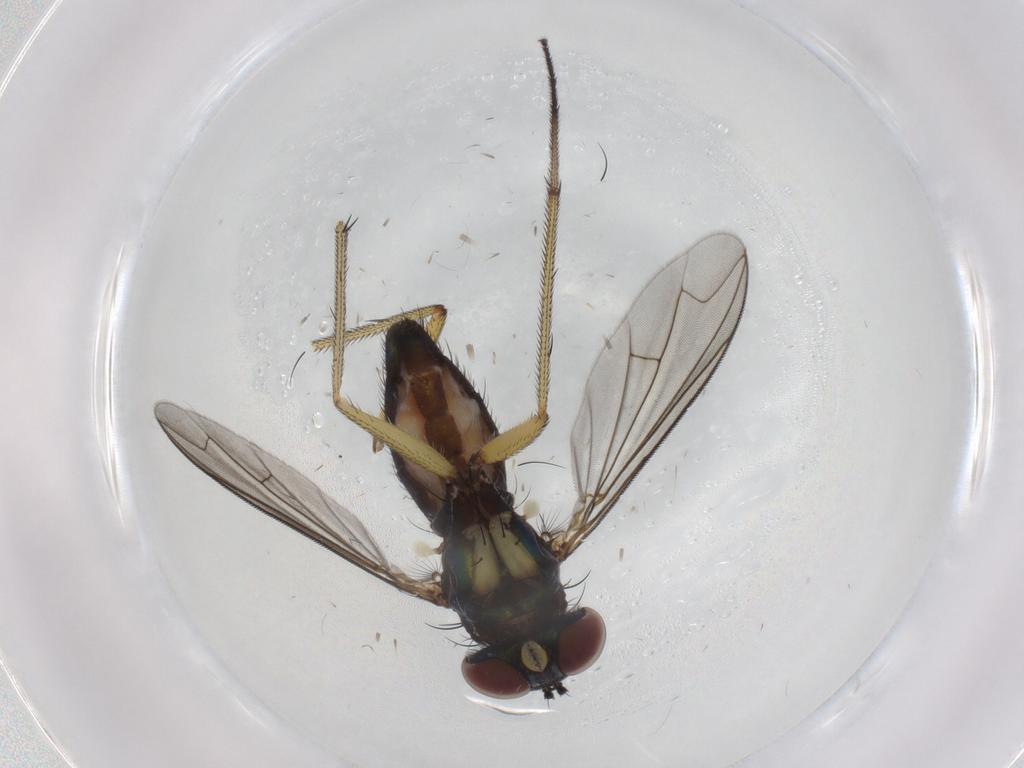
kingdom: Animalia
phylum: Arthropoda
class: Insecta
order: Diptera
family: Dolichopodidae
